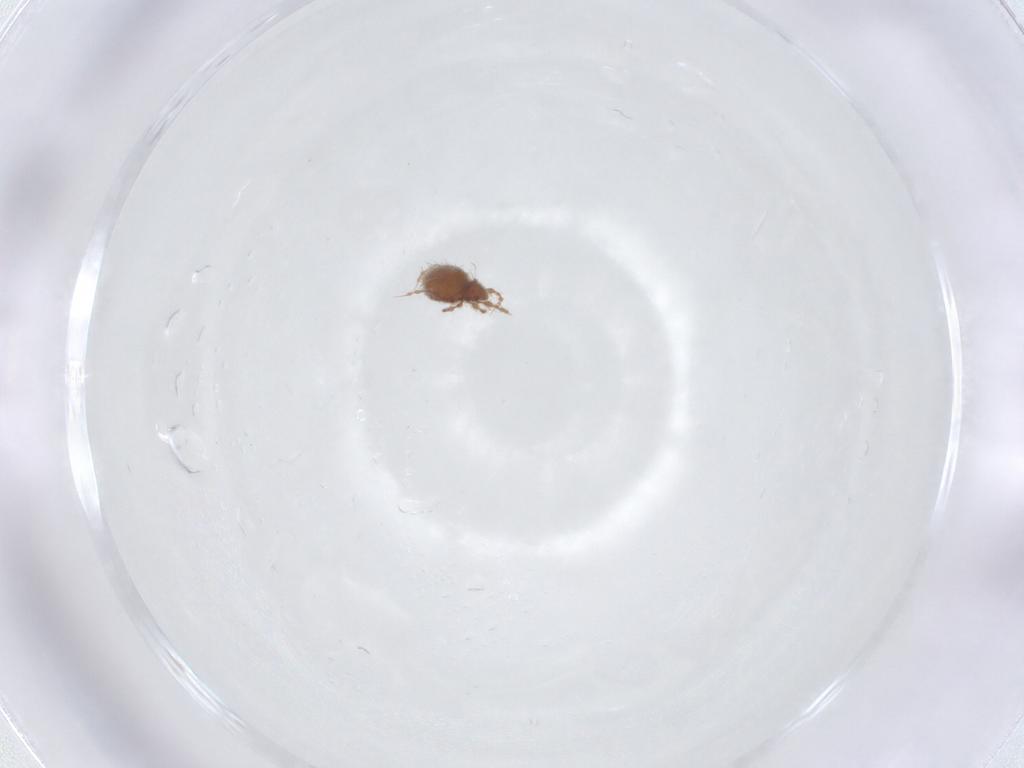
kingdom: Animalia
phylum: Arthropoda
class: Arachnida
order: Sarcoptiformes
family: Damaeidae
